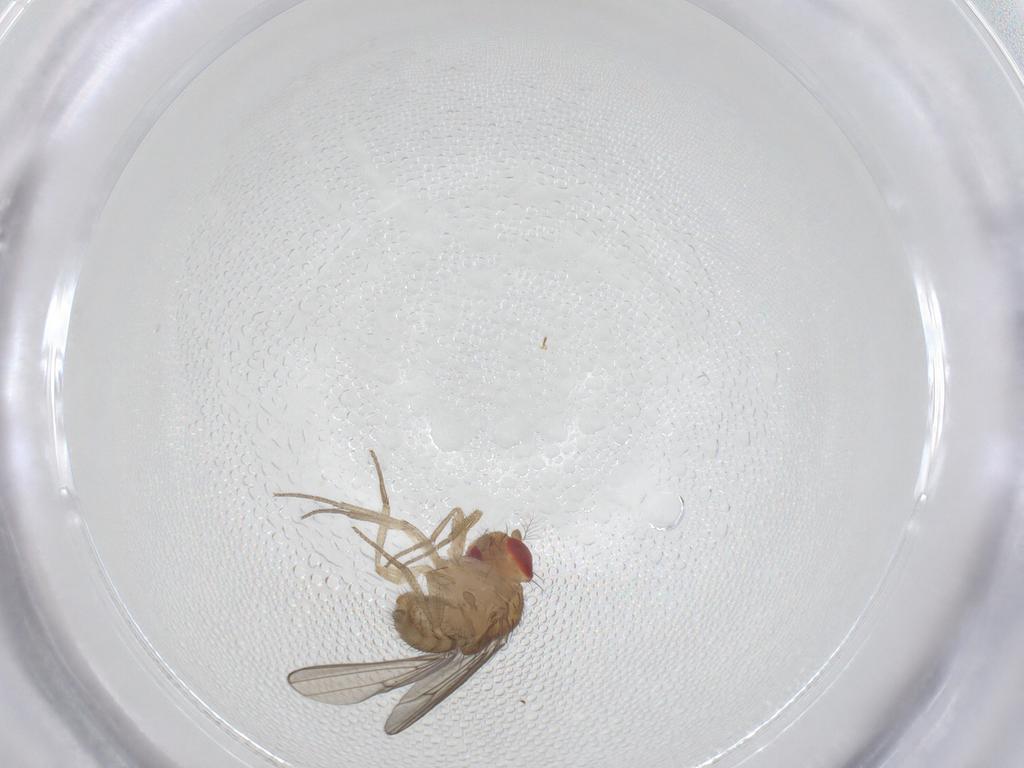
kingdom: Animalia
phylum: Arthropoda
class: Insecta
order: Diptera
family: Drosophilidae
